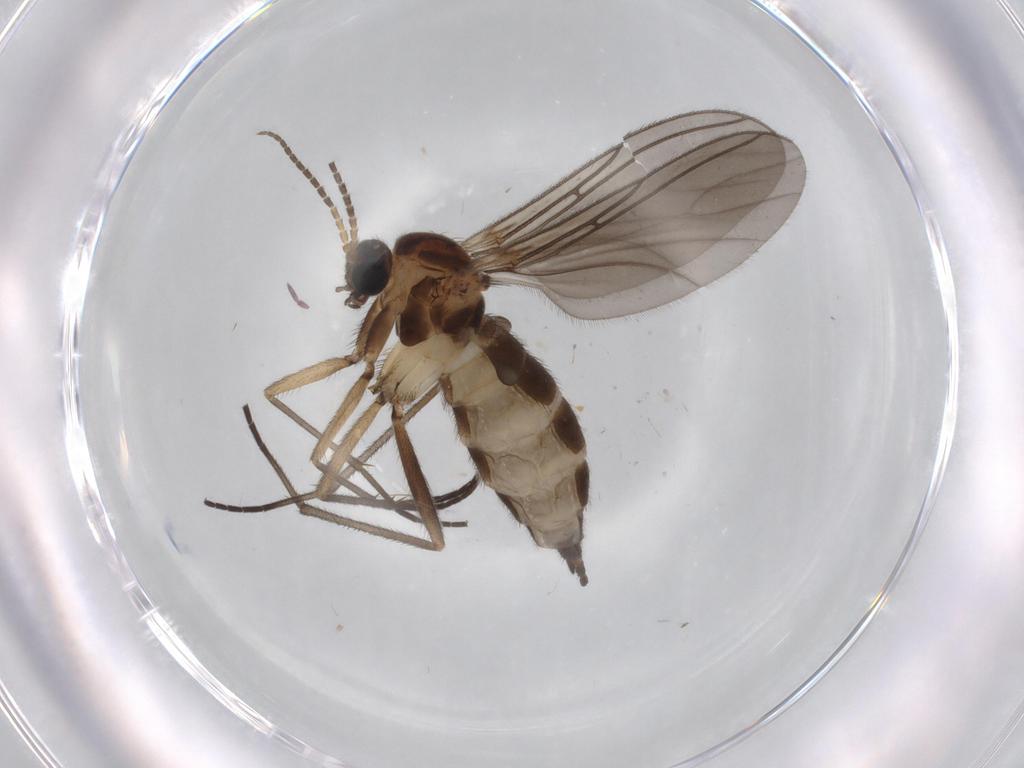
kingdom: Animalia
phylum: Arthropoda
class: Insecta
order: Diptera
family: Sciaridae
